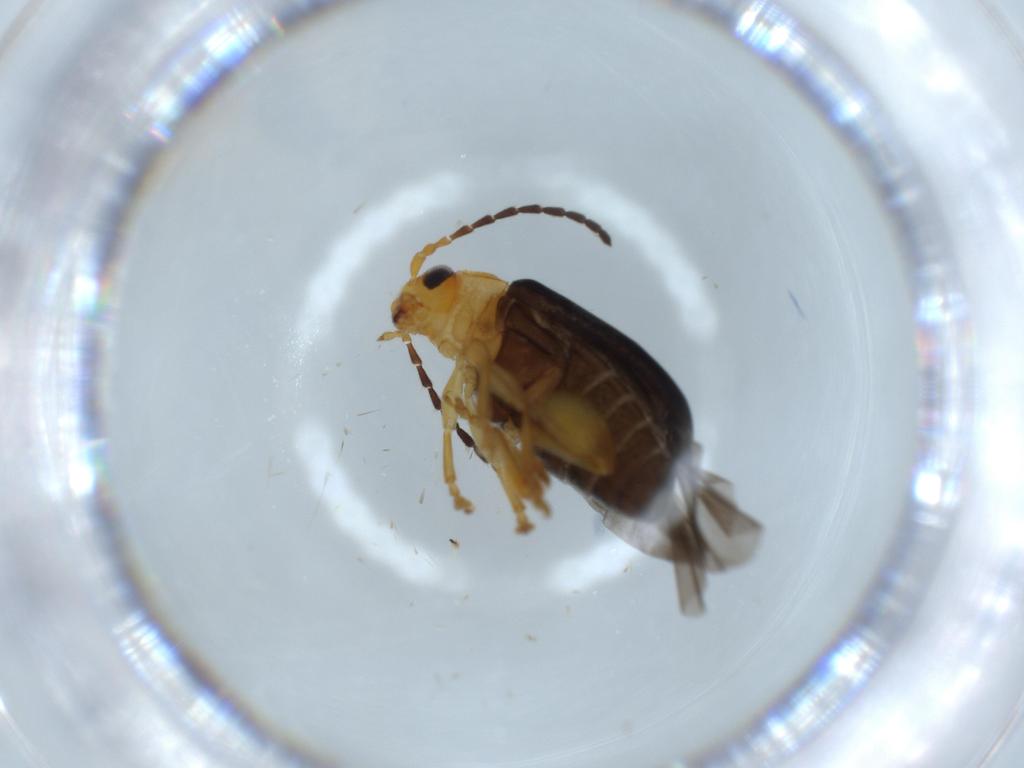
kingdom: Animalia
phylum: Arthropoda
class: Insecta
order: Coleoptera
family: Chrysomelidae
